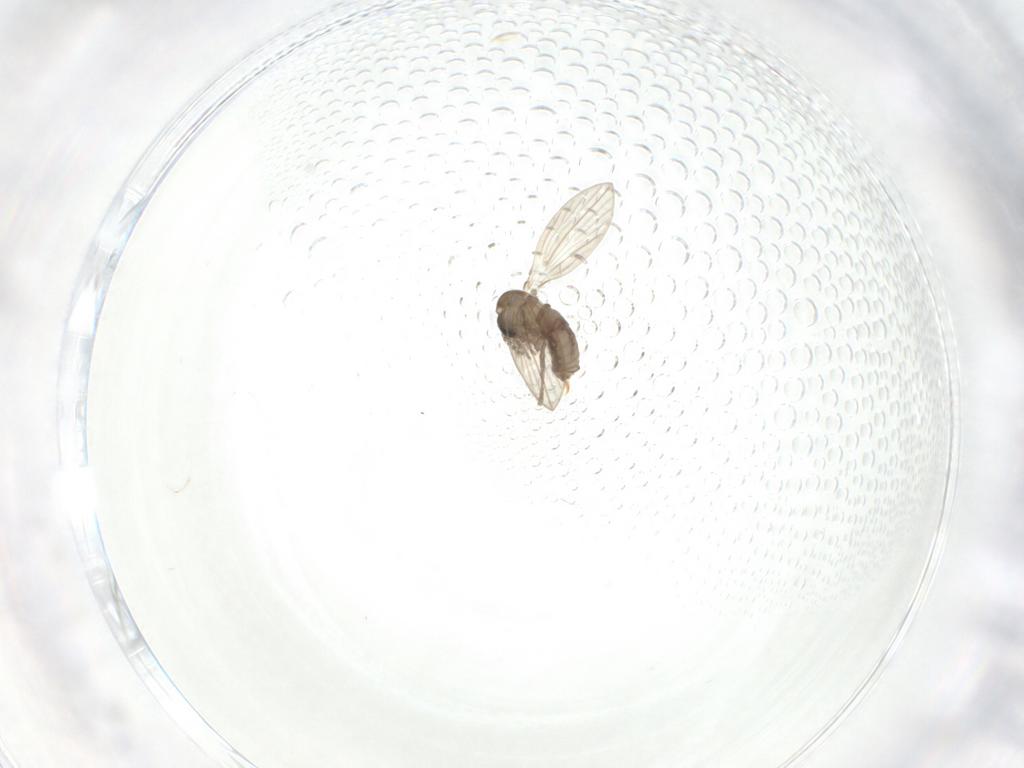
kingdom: Animalia
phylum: Arthropoda
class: Insecta
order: Diptera
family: Psychodidae
